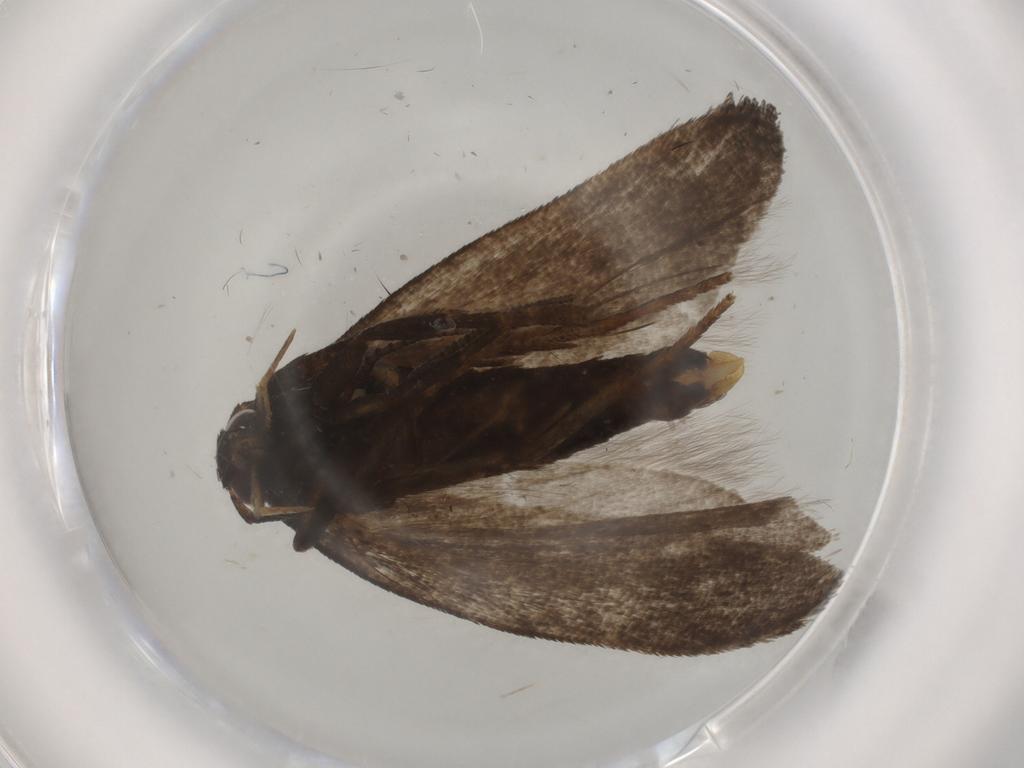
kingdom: Animalia
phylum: Arthropoda
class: Insecta
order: Lepidoptera
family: Gelechiidae
